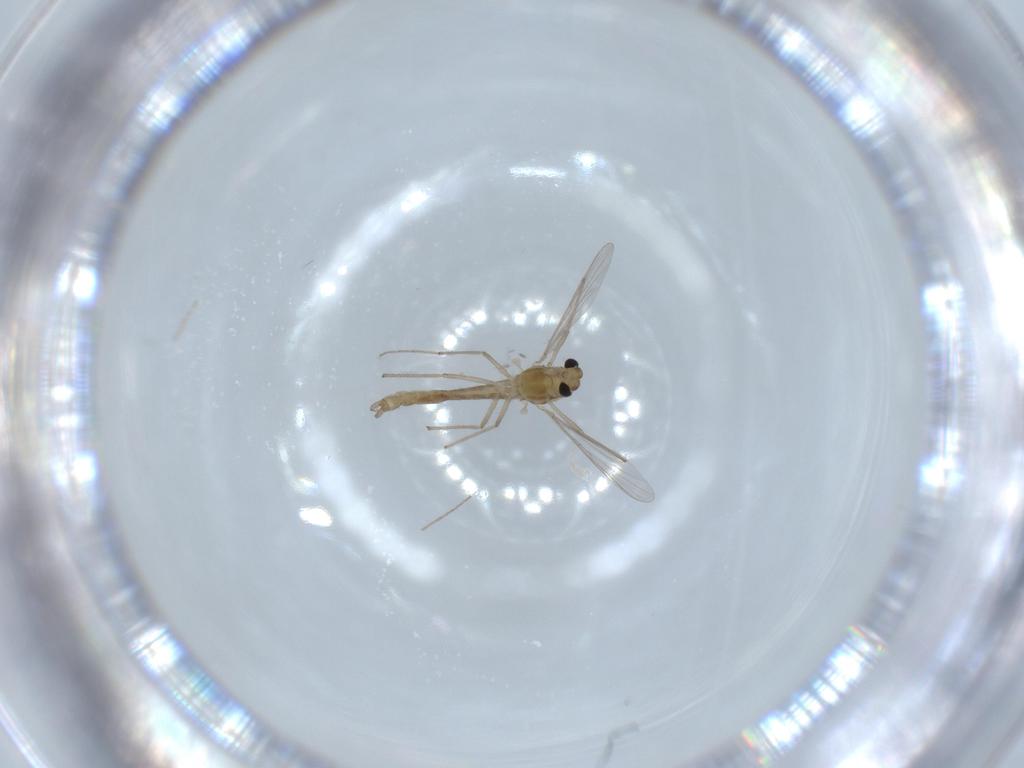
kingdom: Animalia
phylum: Arthropoda
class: Insecta
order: Diptera
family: Chironomidae
